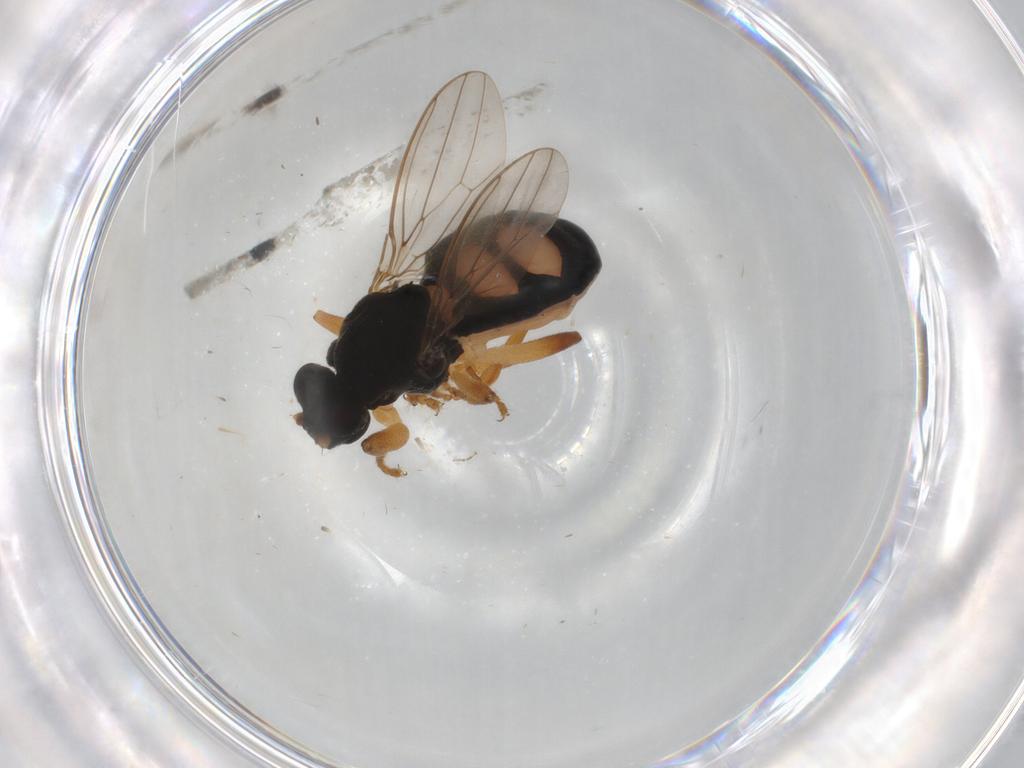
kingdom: Animalia
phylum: Arthropoda
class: Insecta
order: Diptera
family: Sphaeroceridae
